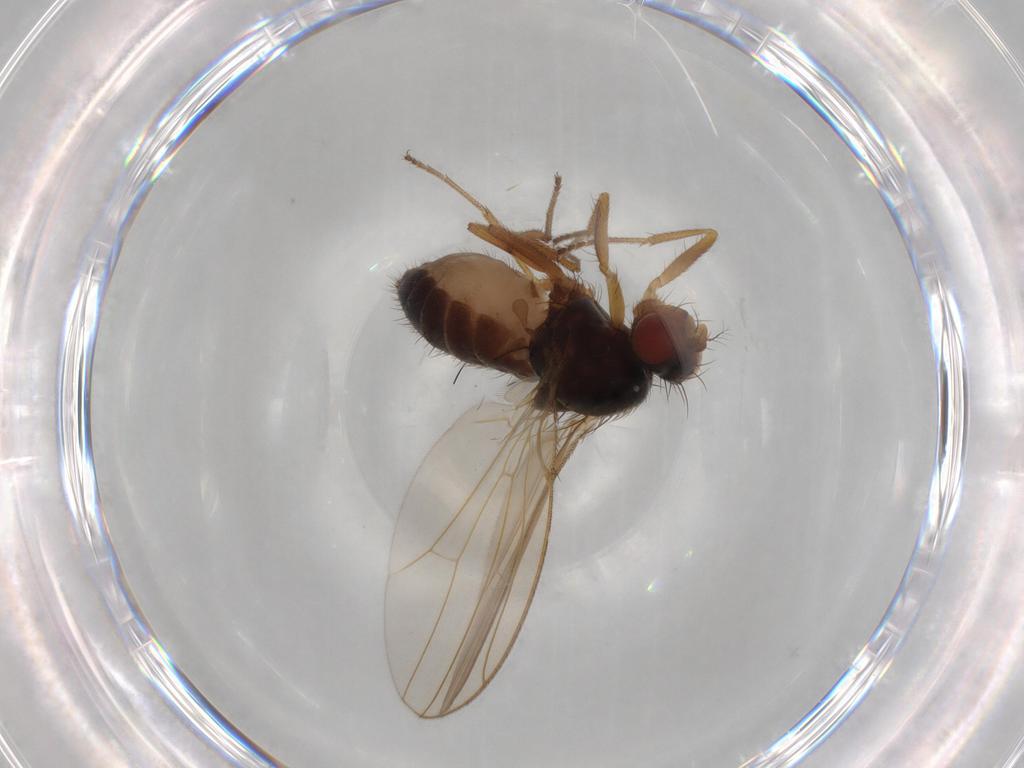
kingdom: Animalia
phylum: Arthropoda
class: Insecta
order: Diptera
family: Drosophilidae
